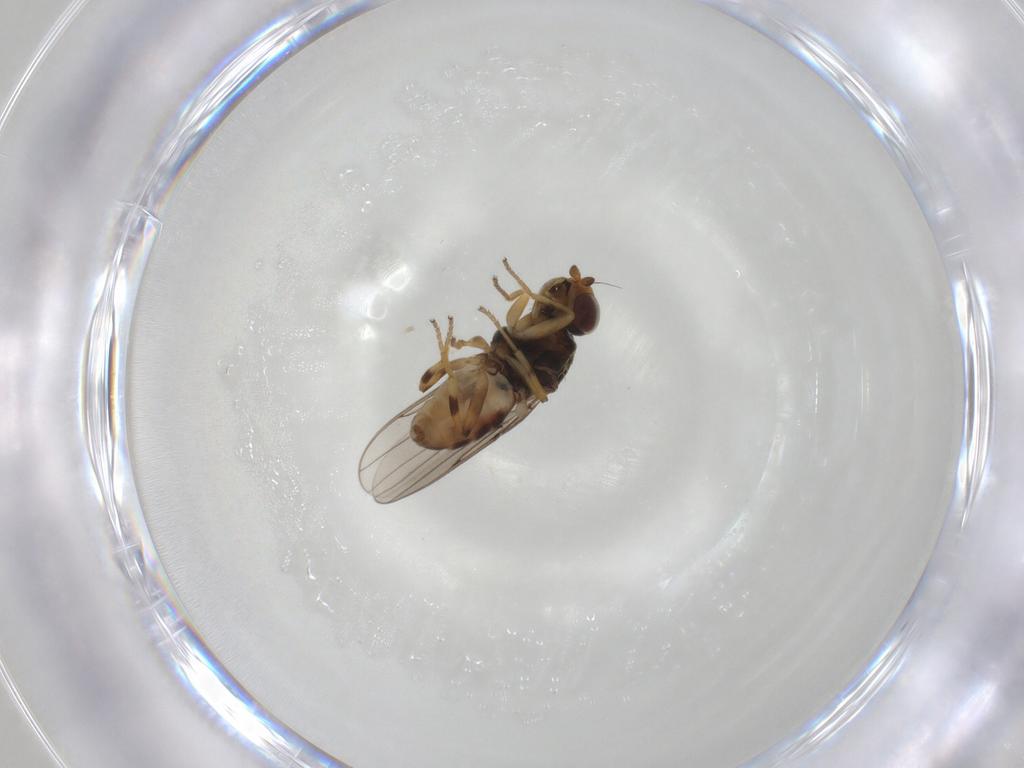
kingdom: Animalia
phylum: Arthropoda
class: Insecta
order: Diptera
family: Chloropidae
